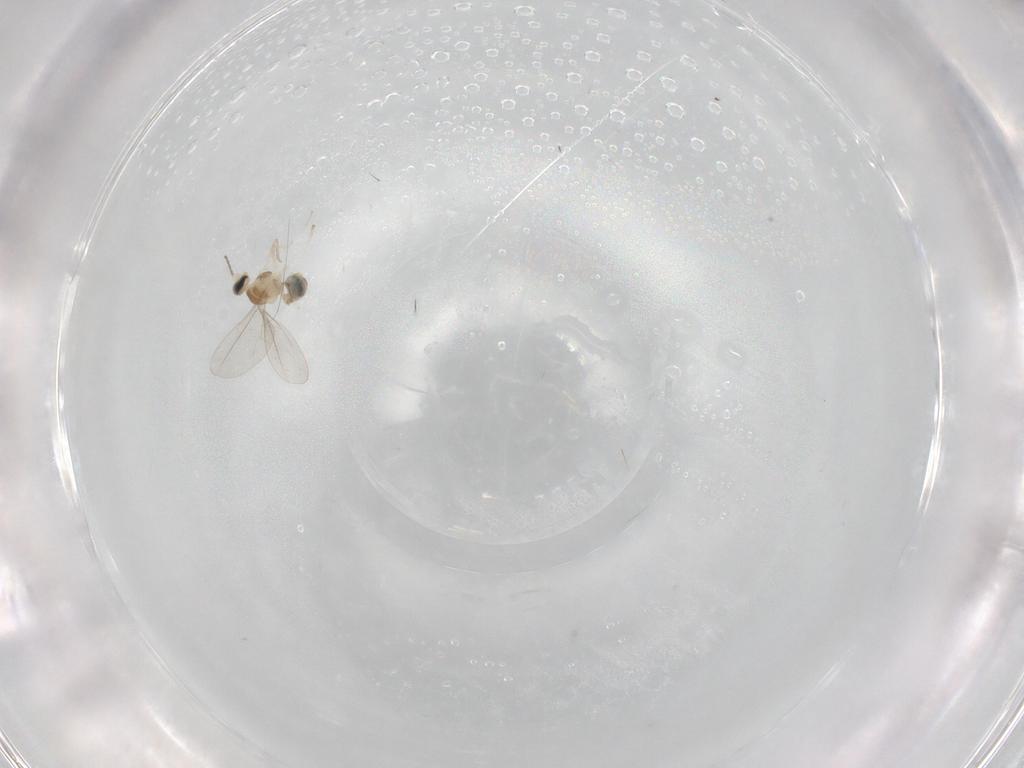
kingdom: Animalia
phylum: Arthropoda
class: Insecta
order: Diptera
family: Cecidomyiidae
